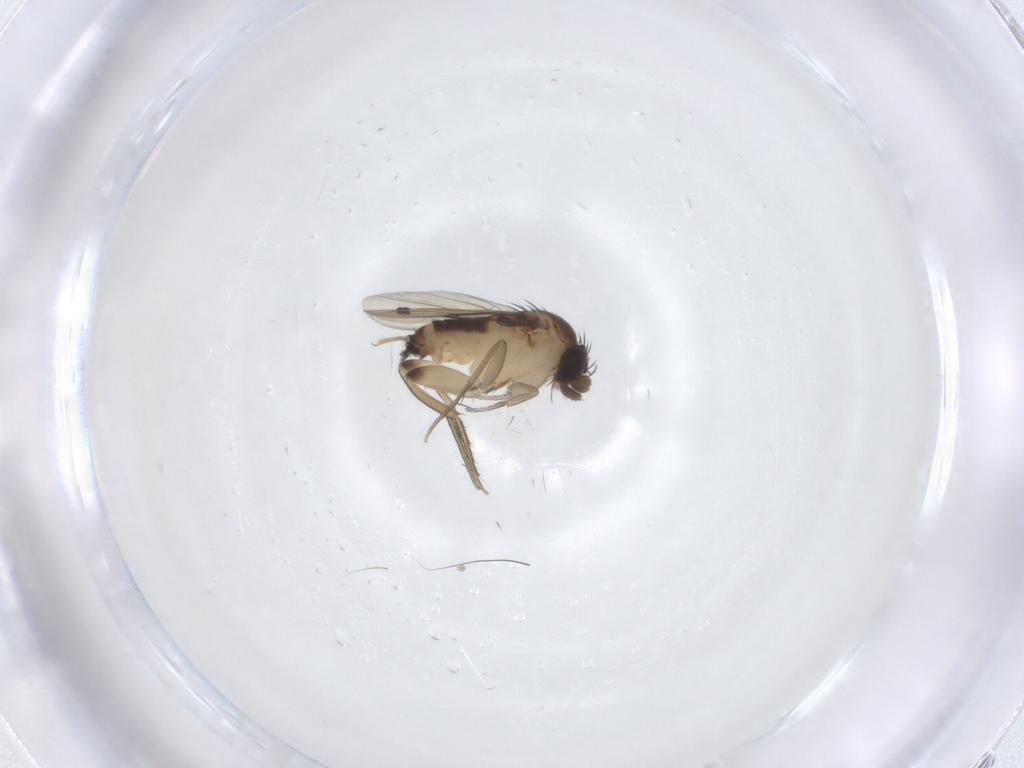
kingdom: Animalia
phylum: Arthropoda
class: Insecta
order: Diptera
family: Cecidomyiidae
